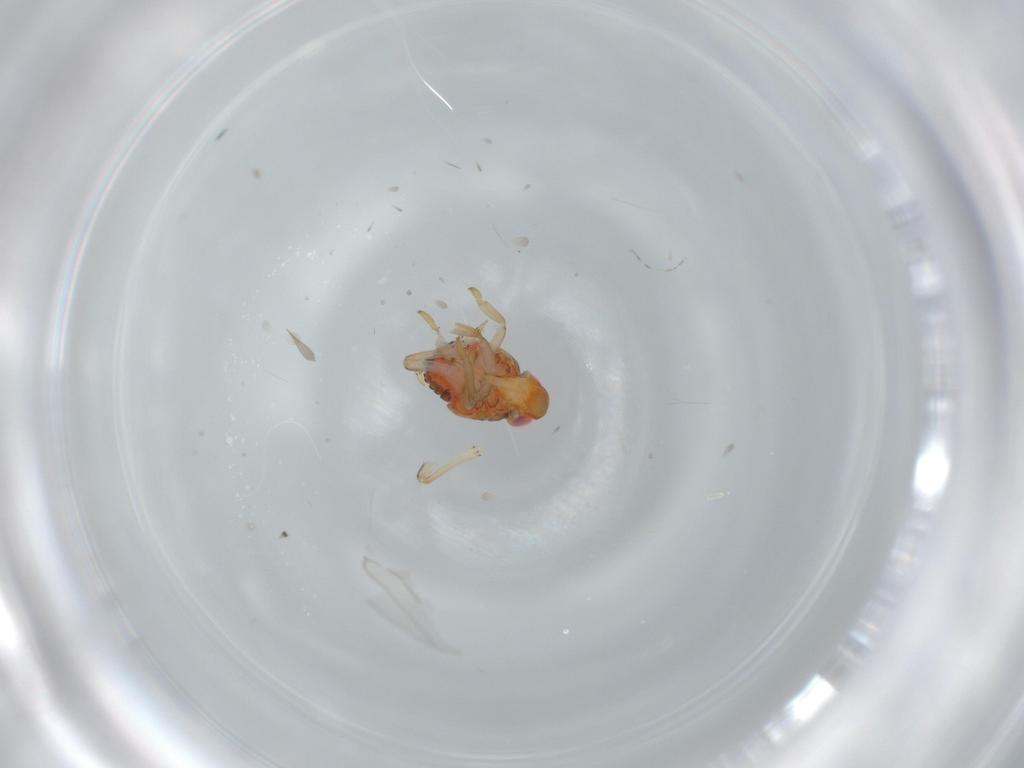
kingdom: Animalia
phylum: Arthropoda
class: Insecta
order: Hemiptera
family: Issidae
